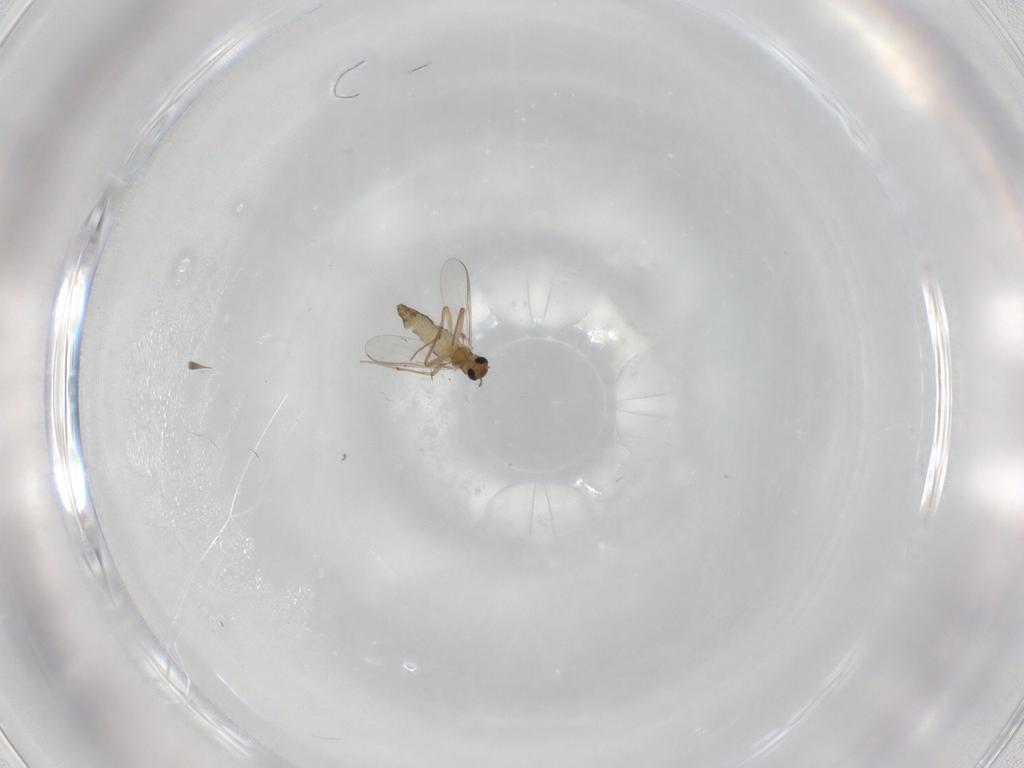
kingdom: Animalia
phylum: Arthropoda
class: Insecta
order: Diptera
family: Chironomidae
